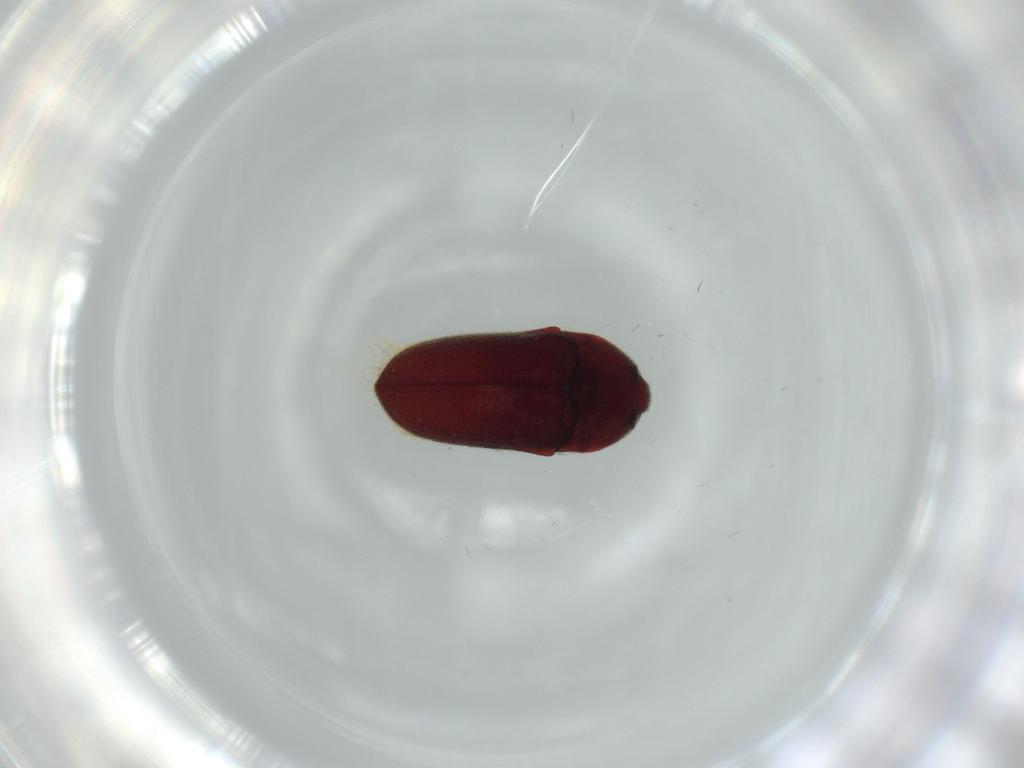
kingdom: Animalia
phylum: Arthropoda
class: Insecta
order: Coleoptera
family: Throscidae
